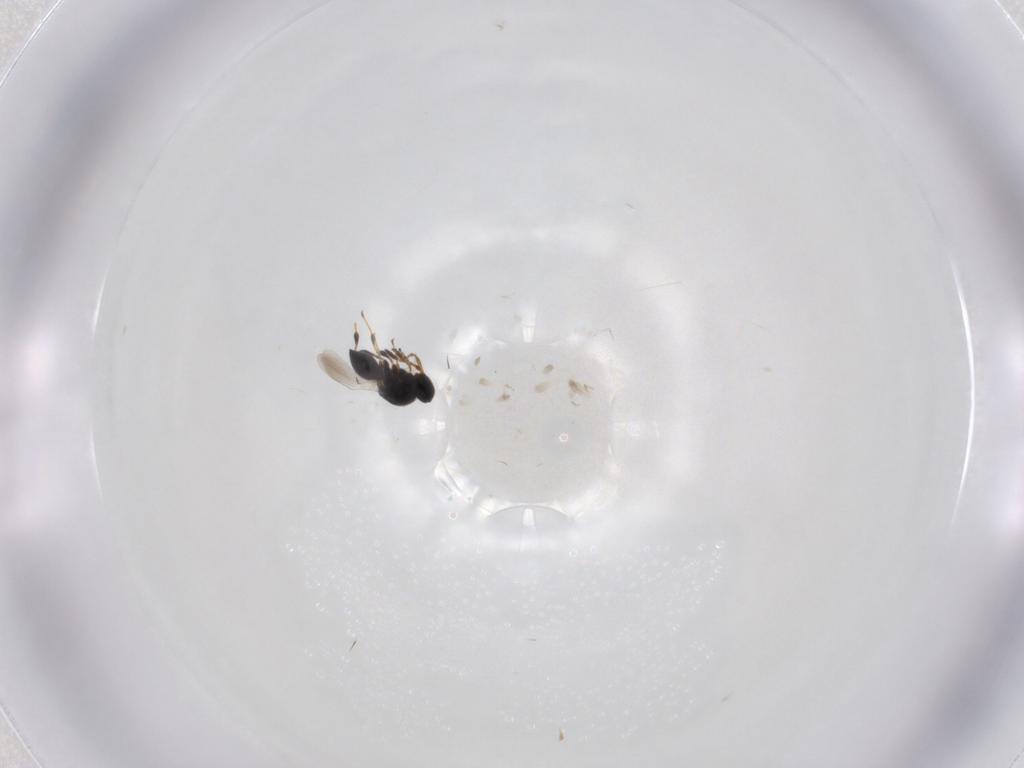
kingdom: Animalia
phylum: Arthropoda
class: Insecta
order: Hymenoptera
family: Platygastridae
